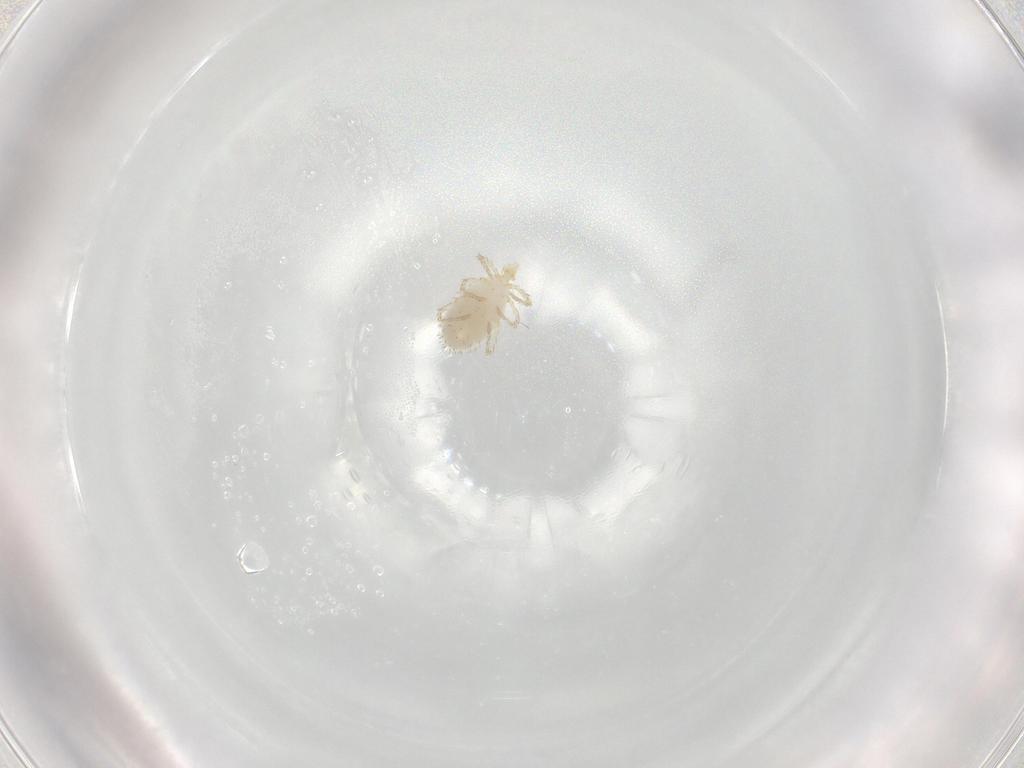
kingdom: Animalia
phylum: Arthropoda
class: Arachnida
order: Trombidiformes
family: Erythraeidae
